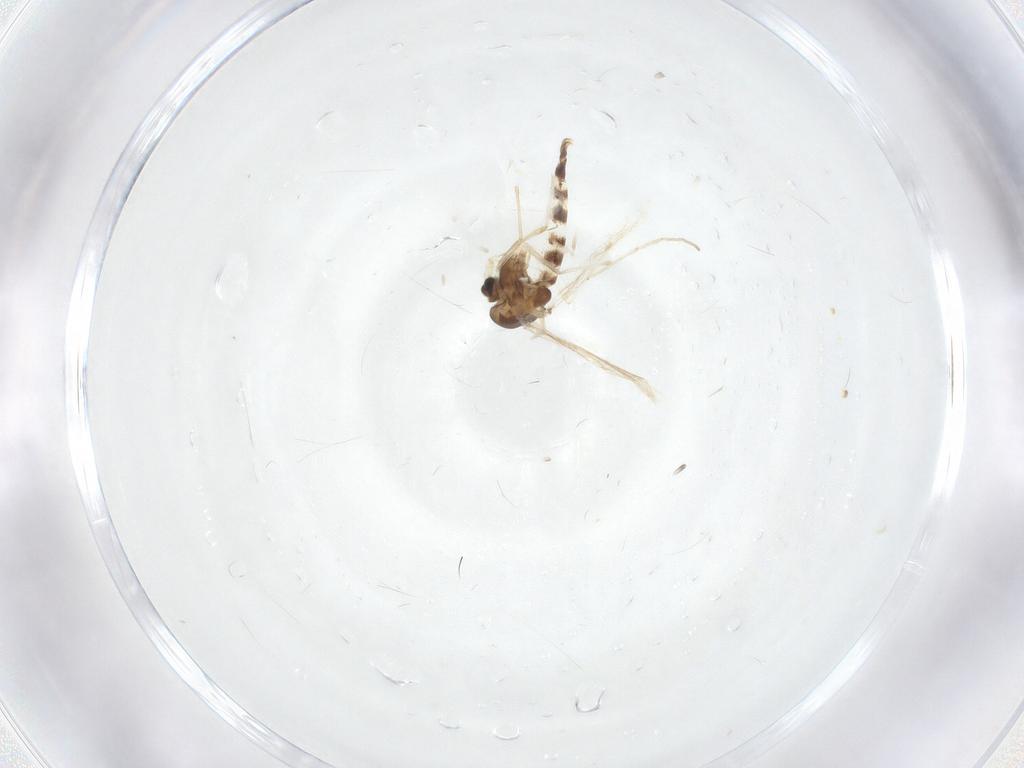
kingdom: Animalia
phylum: Arthropoda
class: Insecta
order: Diptera
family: Chironomidae
